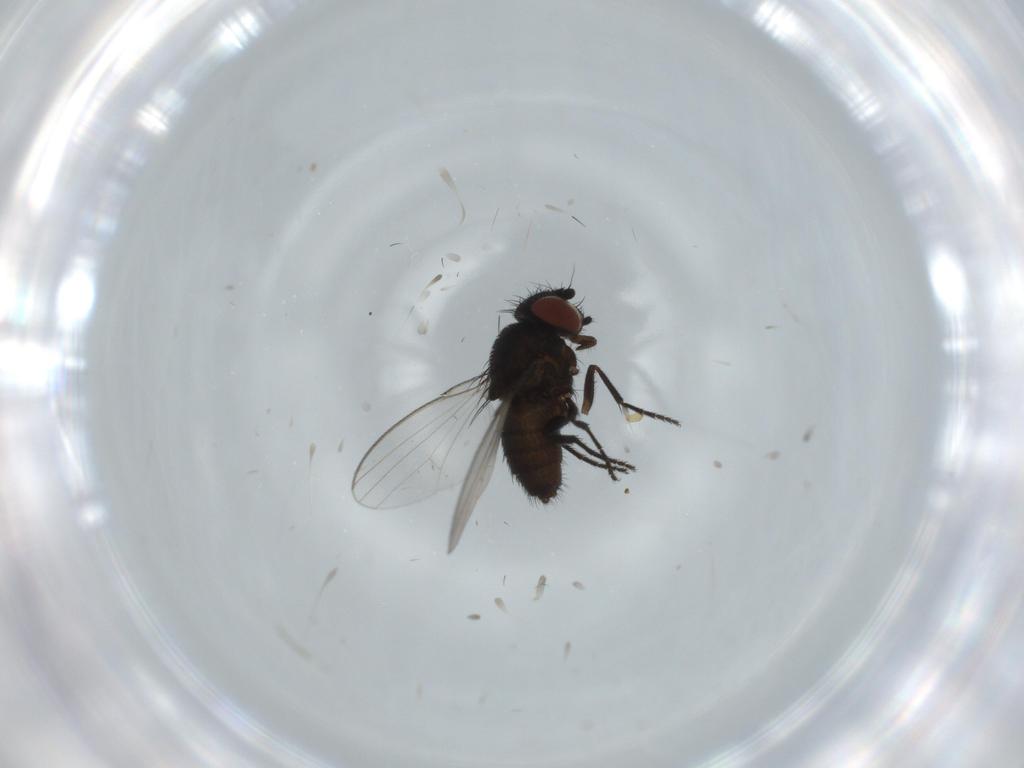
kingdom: Animalia
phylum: Arthropoda
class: Insecta
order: Diptera
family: Milichiidae
